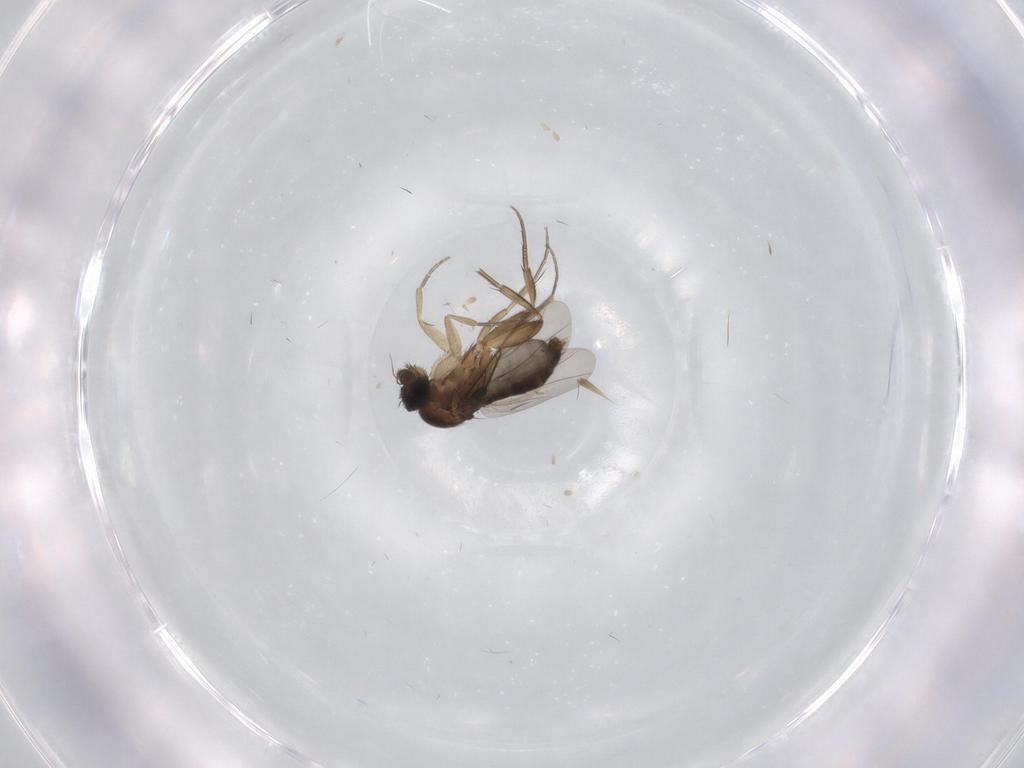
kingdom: Animalia
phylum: Arthropoda
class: Insecta
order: Diptera
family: Phoridae
